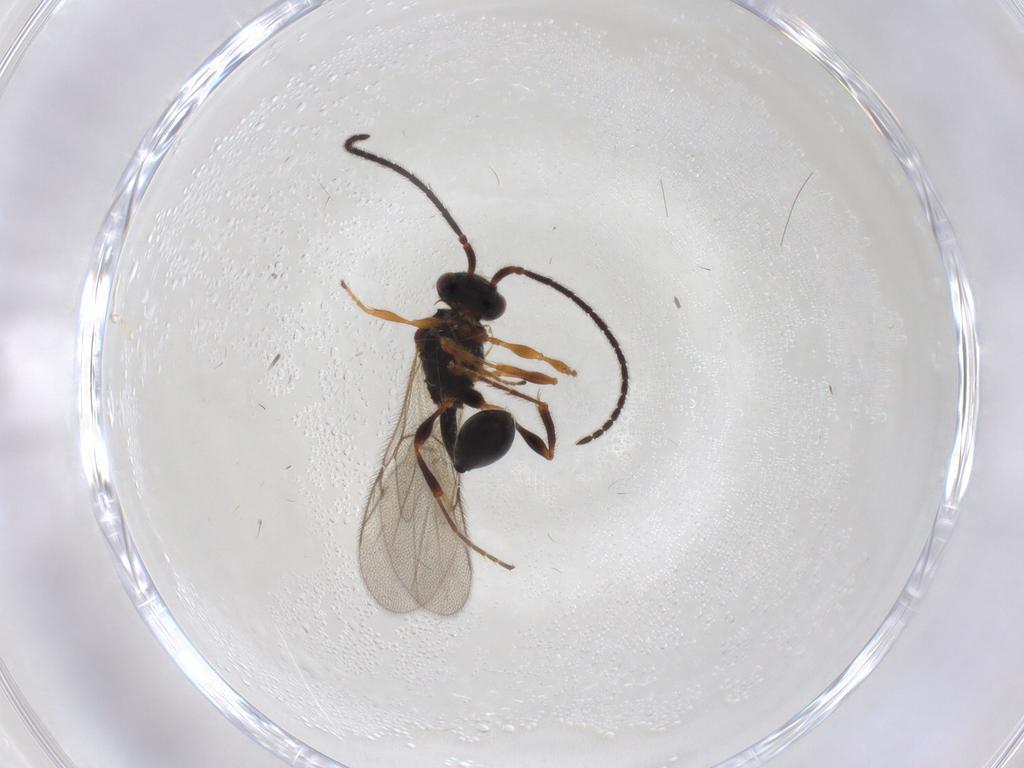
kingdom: Animalia
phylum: Arthropoda
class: Insecta
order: Hymenoptera
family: Diapriidae
